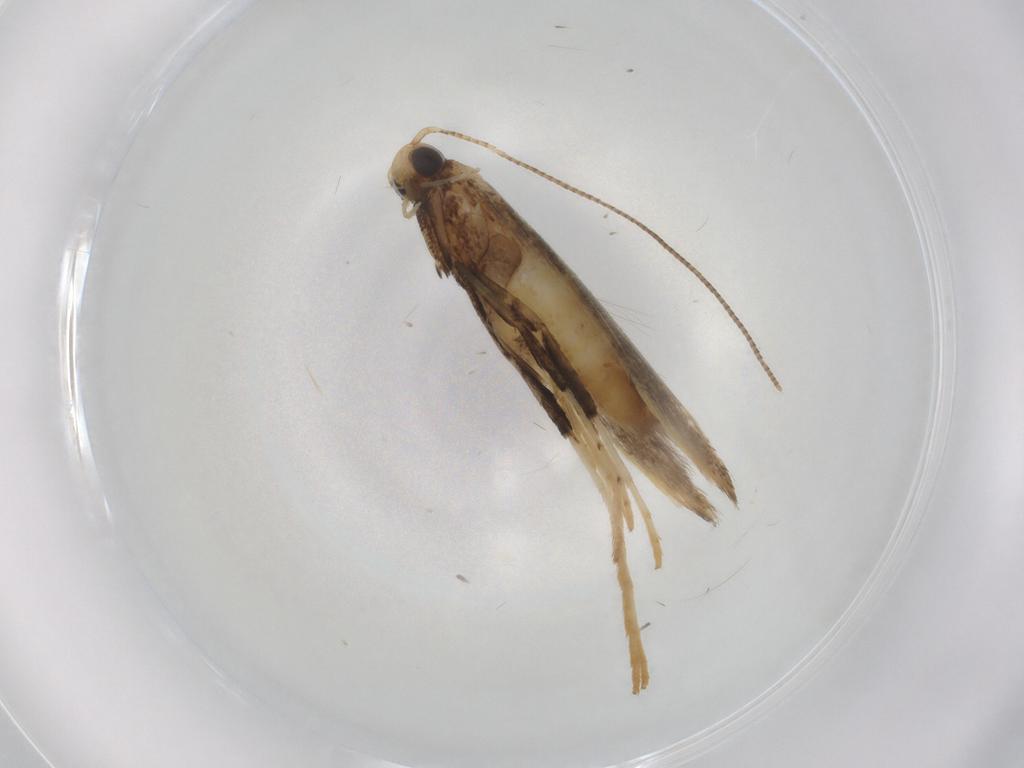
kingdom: Animalia
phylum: Arthropoda
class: Insecta
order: Lepidoptera
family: Gracillariidae
